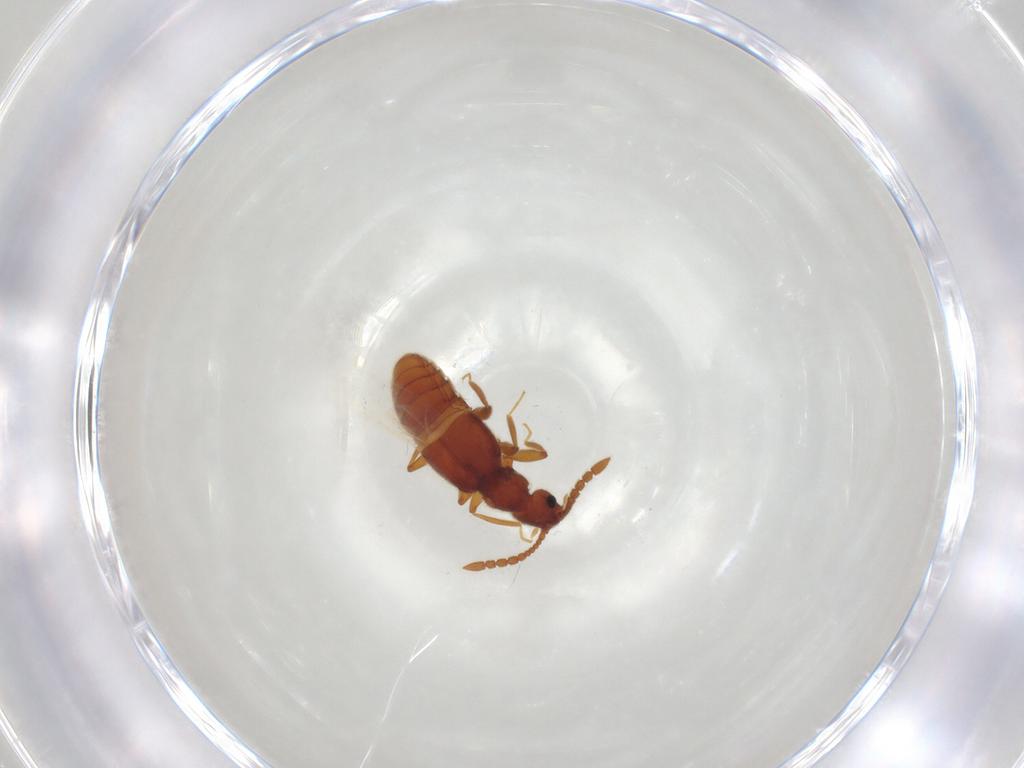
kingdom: Animalia
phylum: Arthropoda
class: Insecta
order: Coleoptera
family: Staphylinidae
